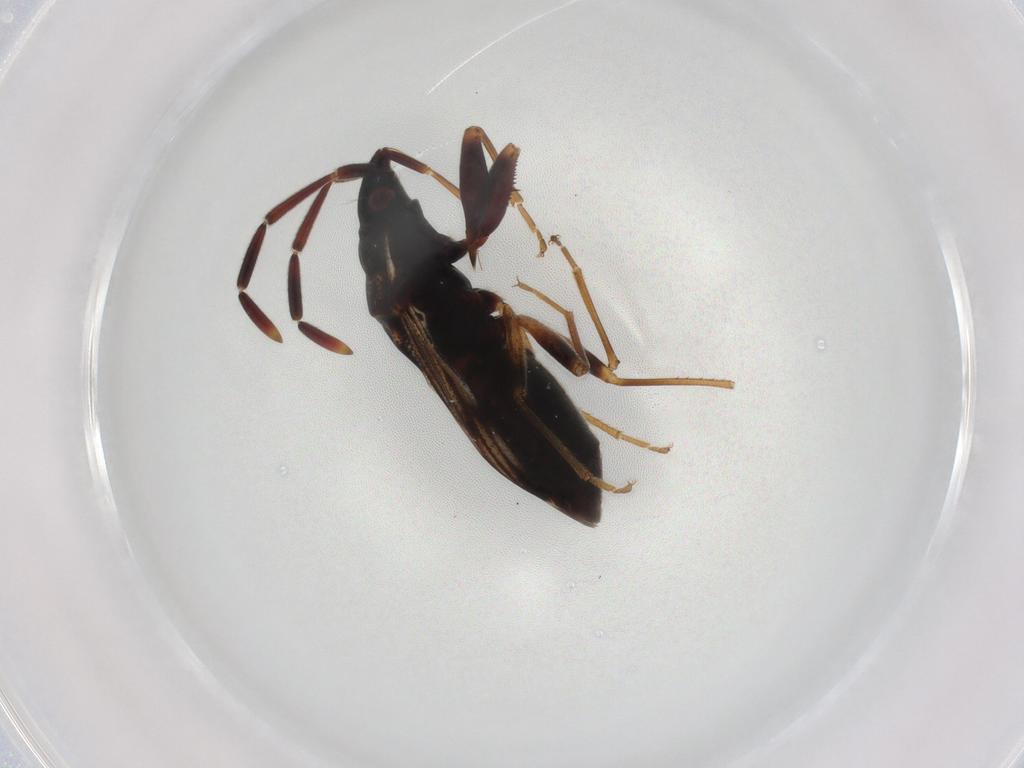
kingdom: Animalia
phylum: Arthropoda
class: Insecta
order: Hemiptera
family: Rhyparochromidae
